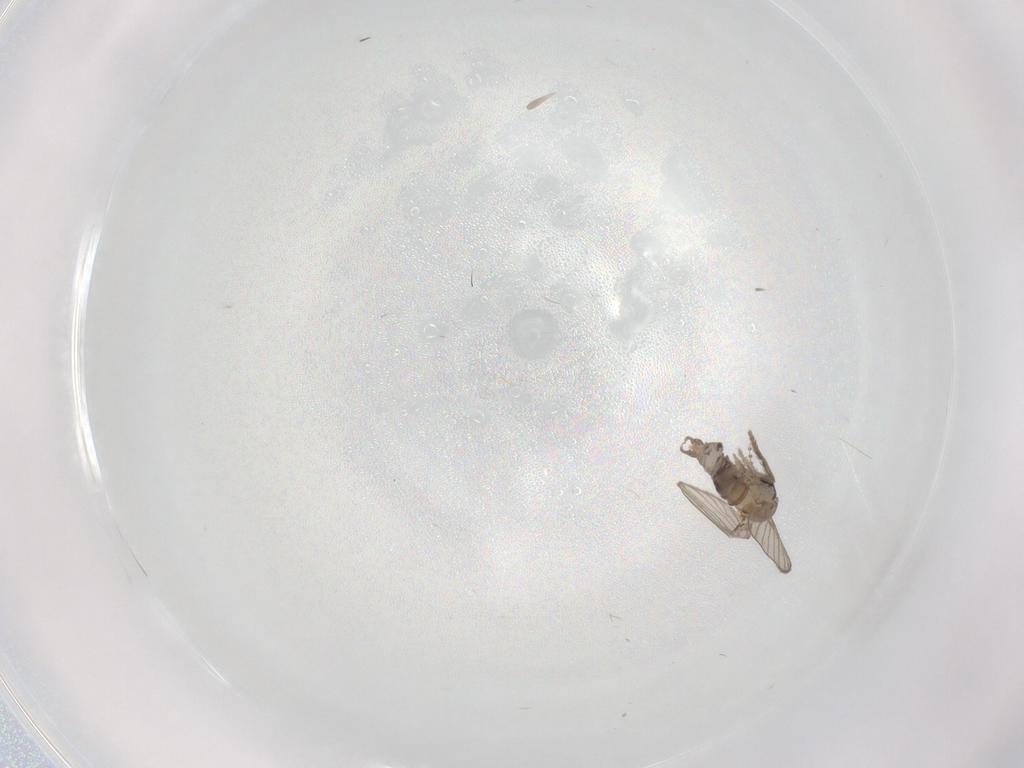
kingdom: Animalia
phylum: Arthropoda
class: Insecta
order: Diptera
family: Psychodidae
